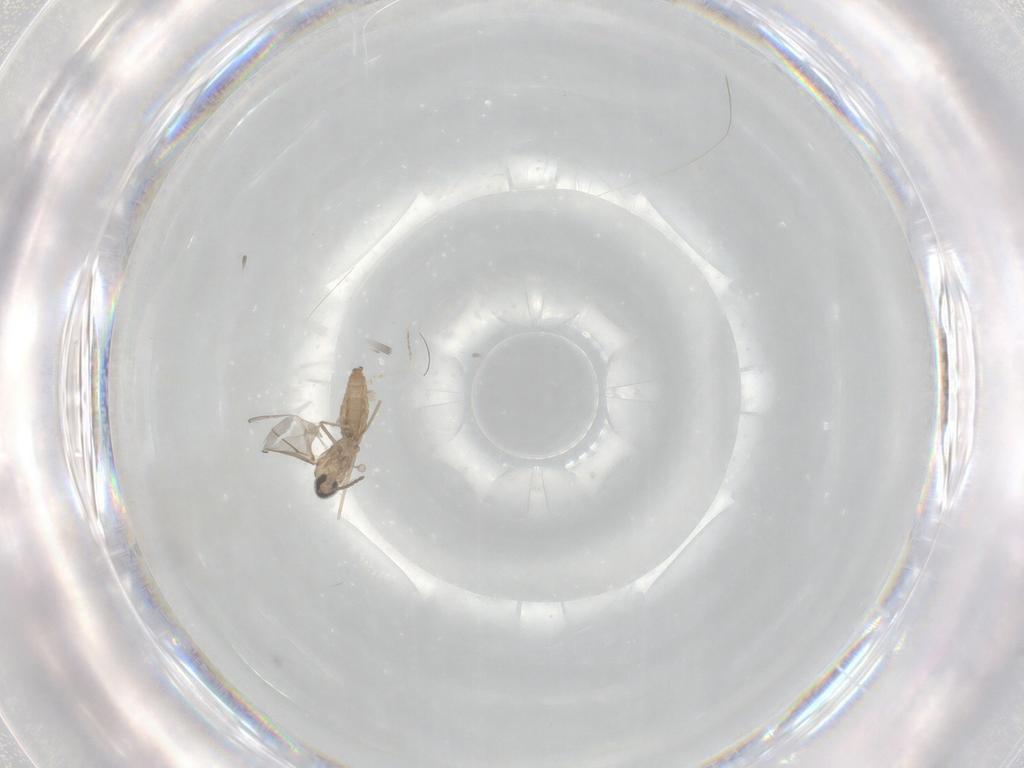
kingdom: Animalia
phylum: Arthropoda
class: Insecta
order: Diptera
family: Cecidomyiidae
